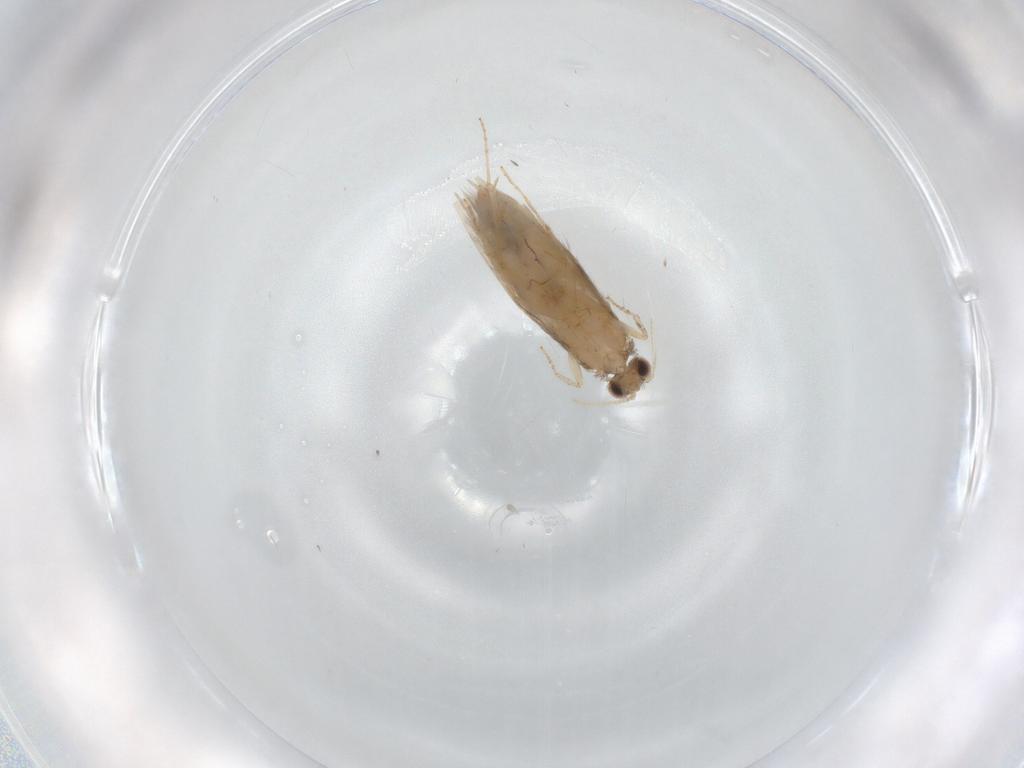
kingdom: Animalia
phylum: Arthropoda
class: Insecta
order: Trichoptera
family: Hydroptilidae
